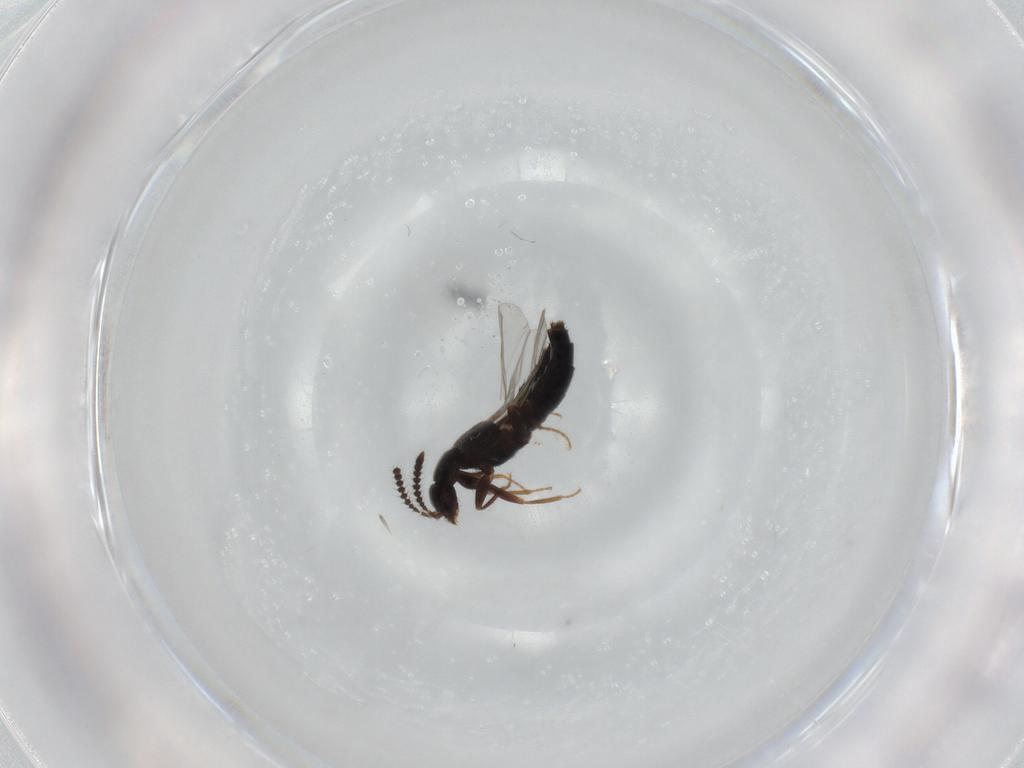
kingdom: Animalia
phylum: Arthropoda
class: Insecta
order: Coleoptera
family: Staphylinidae
